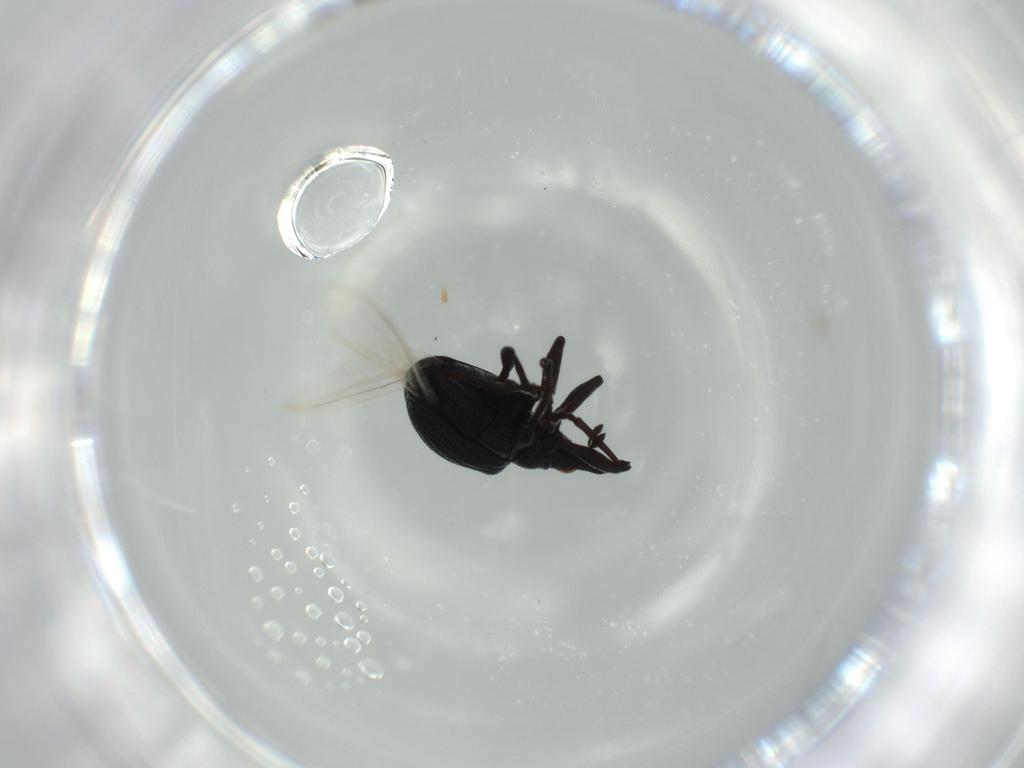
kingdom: Animalia
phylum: Arthropoda
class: Insecta
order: Coleoptera
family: Brentidae
